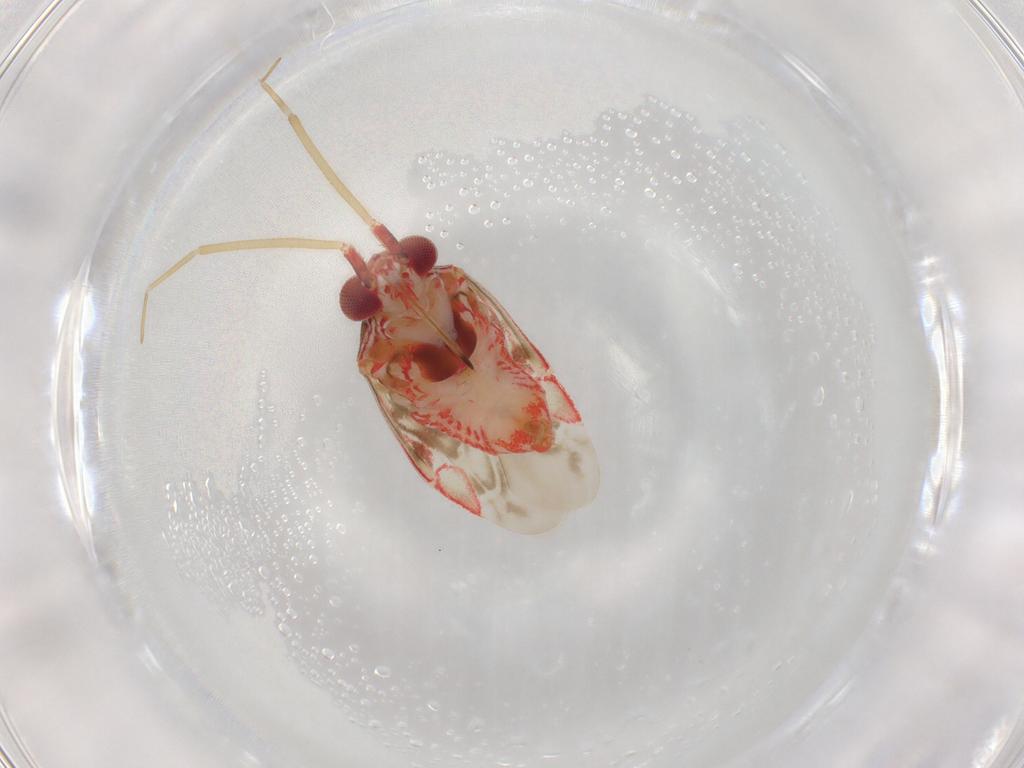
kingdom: Animalia
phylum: Arthropoda
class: Insecta
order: Hemiptera
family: Miridae
